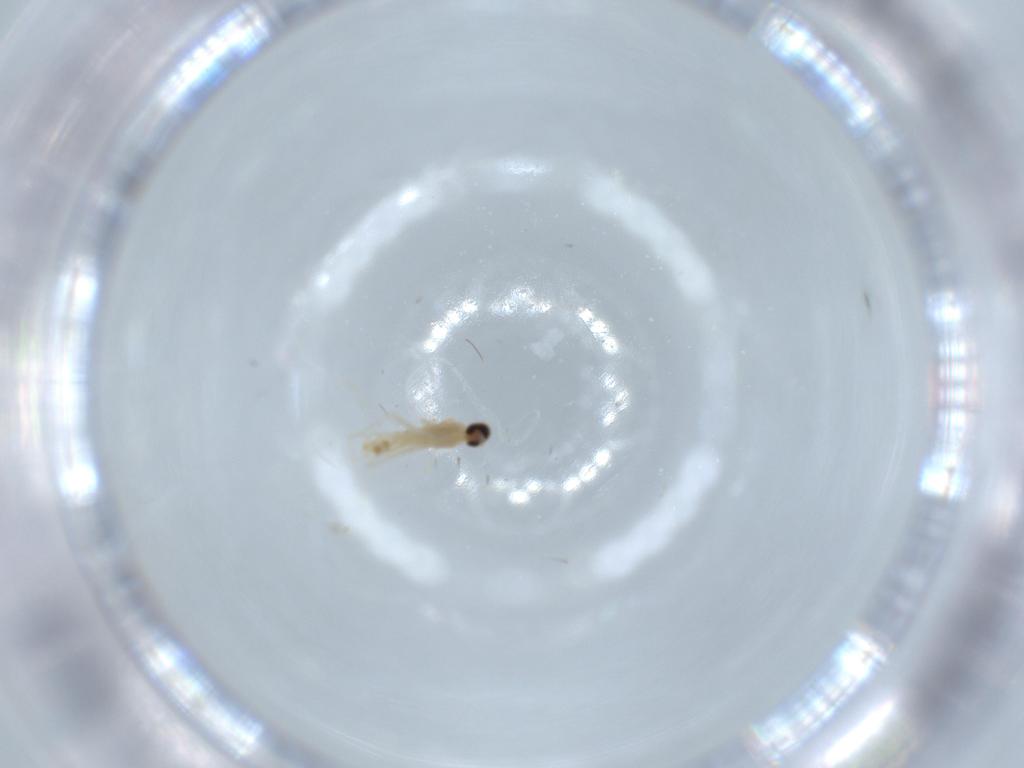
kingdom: Animalia
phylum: Arthropoda
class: Insecta
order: Diptera
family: Cecidomyiidae
